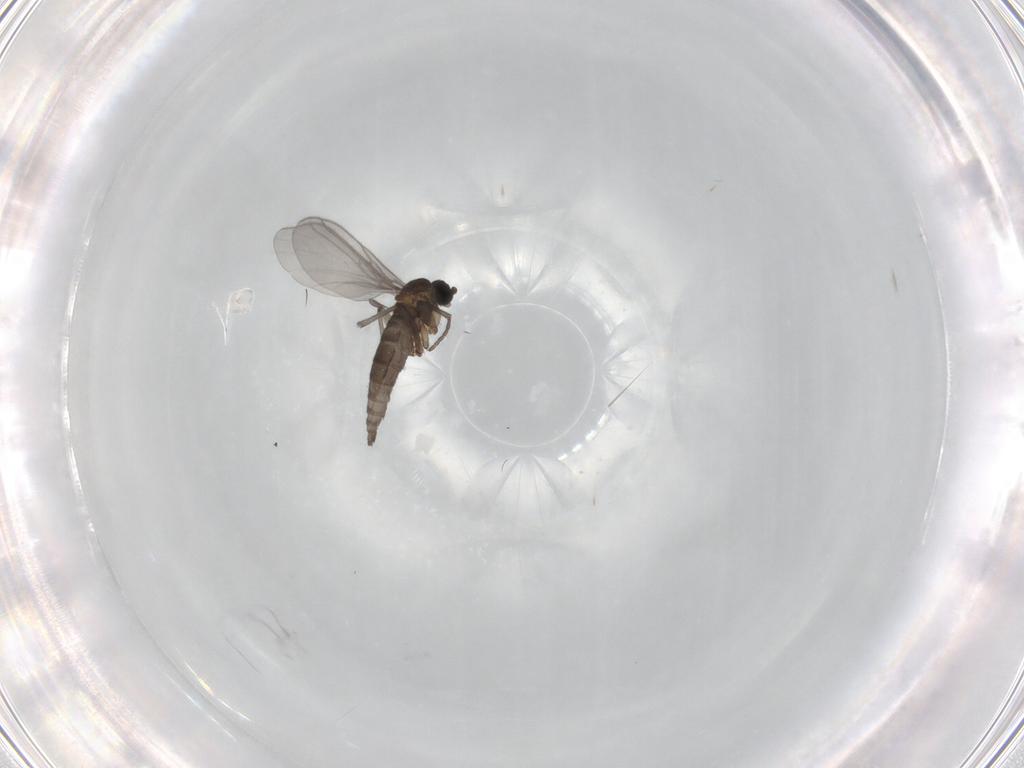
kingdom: Animalia
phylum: Arthropoda
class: Insecta
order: Diptera
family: Sciaridae
